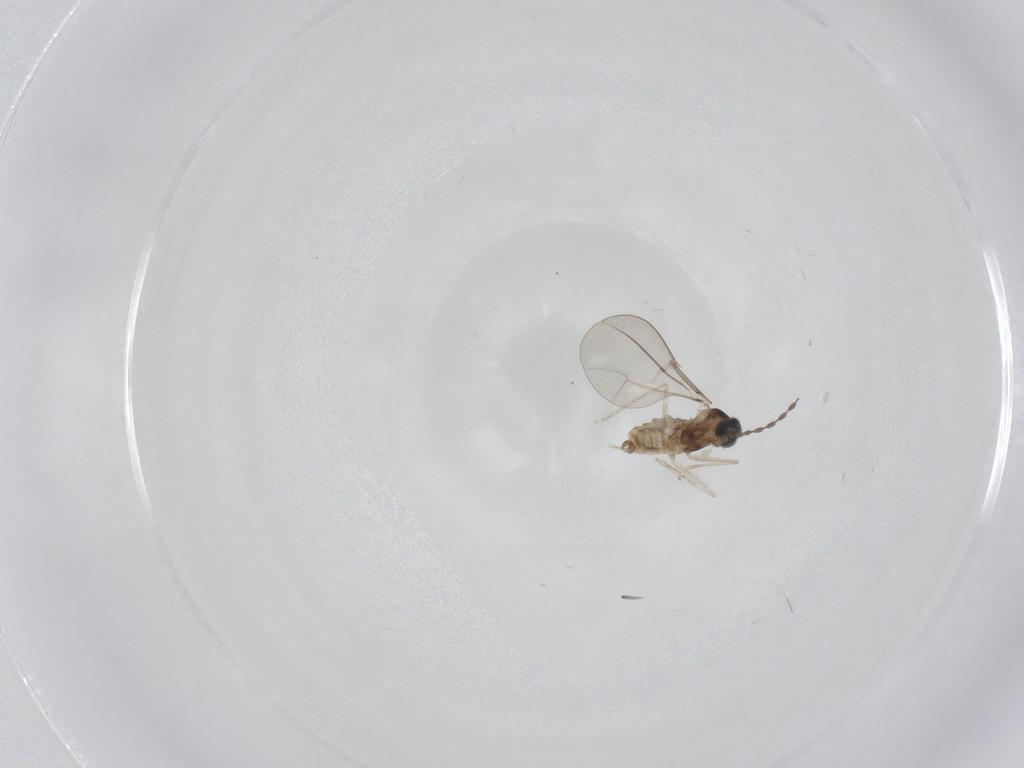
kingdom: Animalia
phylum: Arthropoda
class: Insecta
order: Diptera
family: Cecidomyiidae
